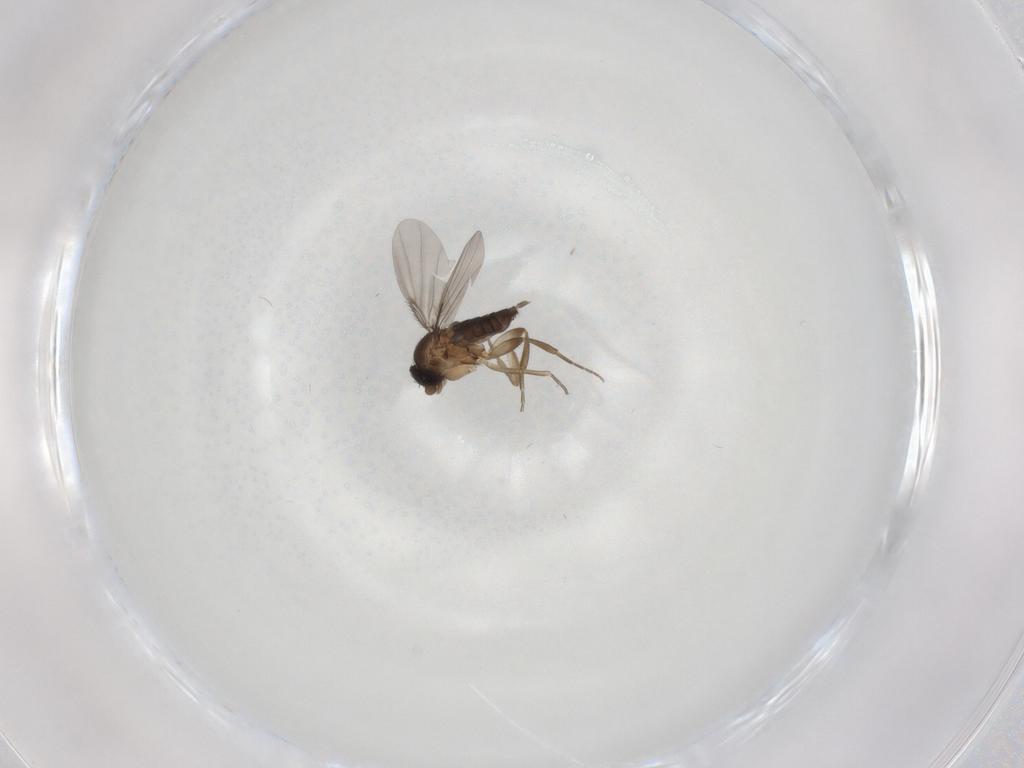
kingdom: Animalia
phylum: Arthropoda
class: Insecta
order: Diptera
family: Phoridae
